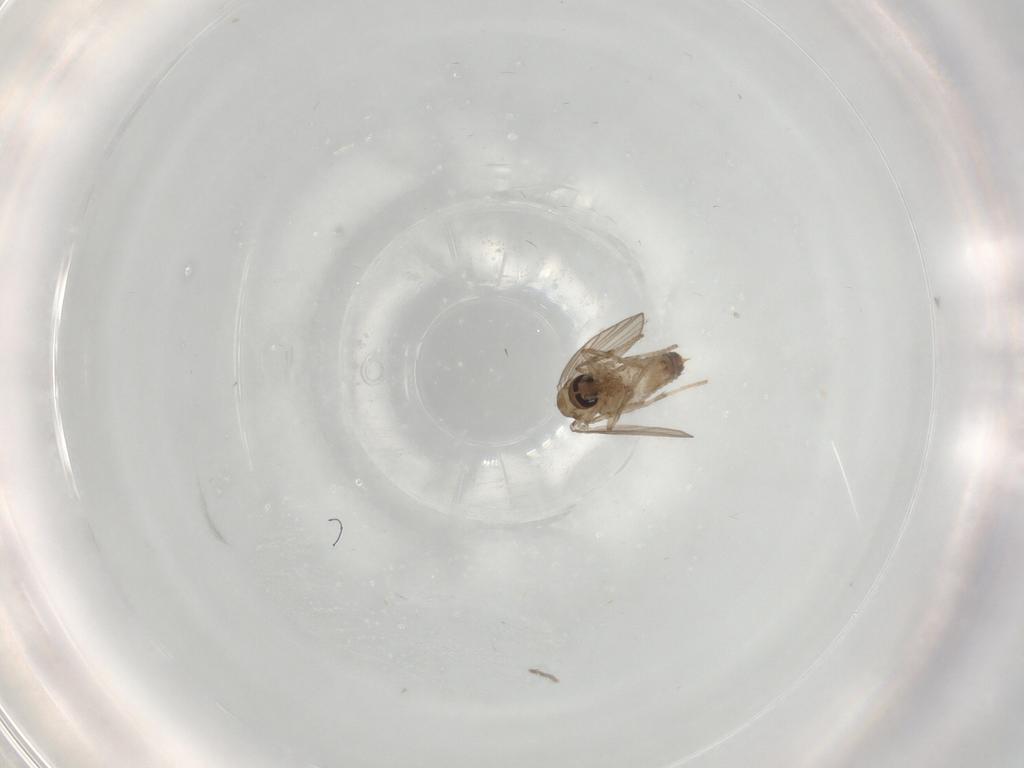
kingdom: Animalia
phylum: Arthropoda
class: Insecta
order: Diptera
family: Psychodidae
